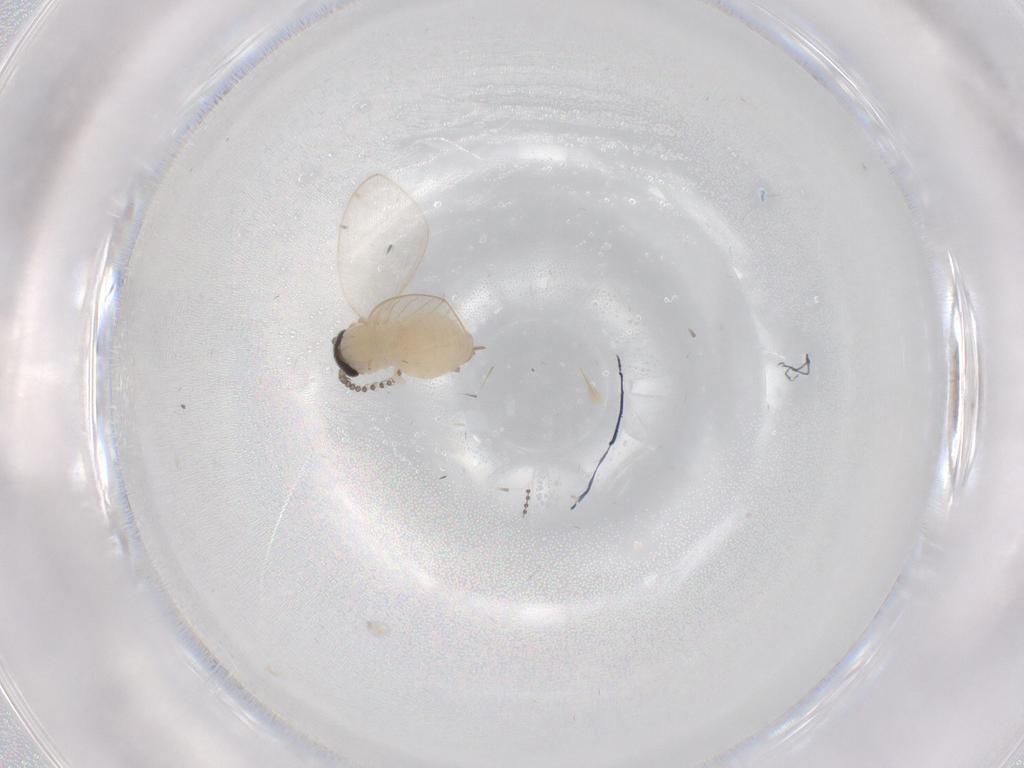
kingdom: Animalia
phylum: Arthropoda
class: Insecta
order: Diptera
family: Psychodidae
